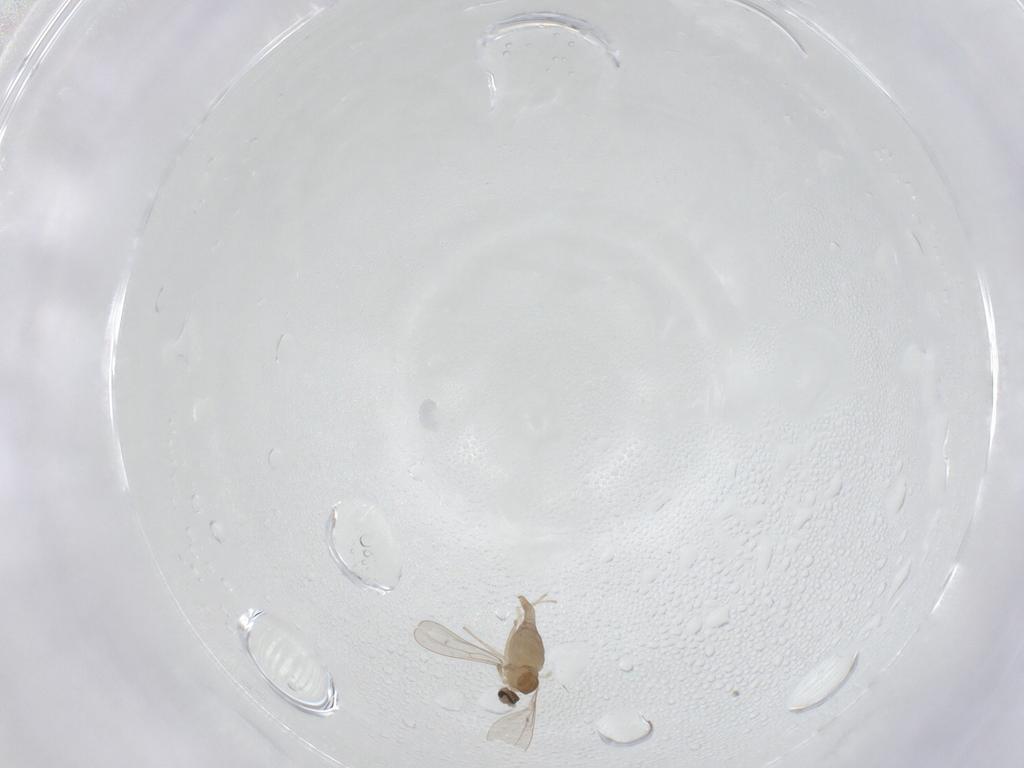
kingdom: Animalia
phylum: Arthropoda
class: Insecta
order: Diptera
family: Cecidomyiidae
